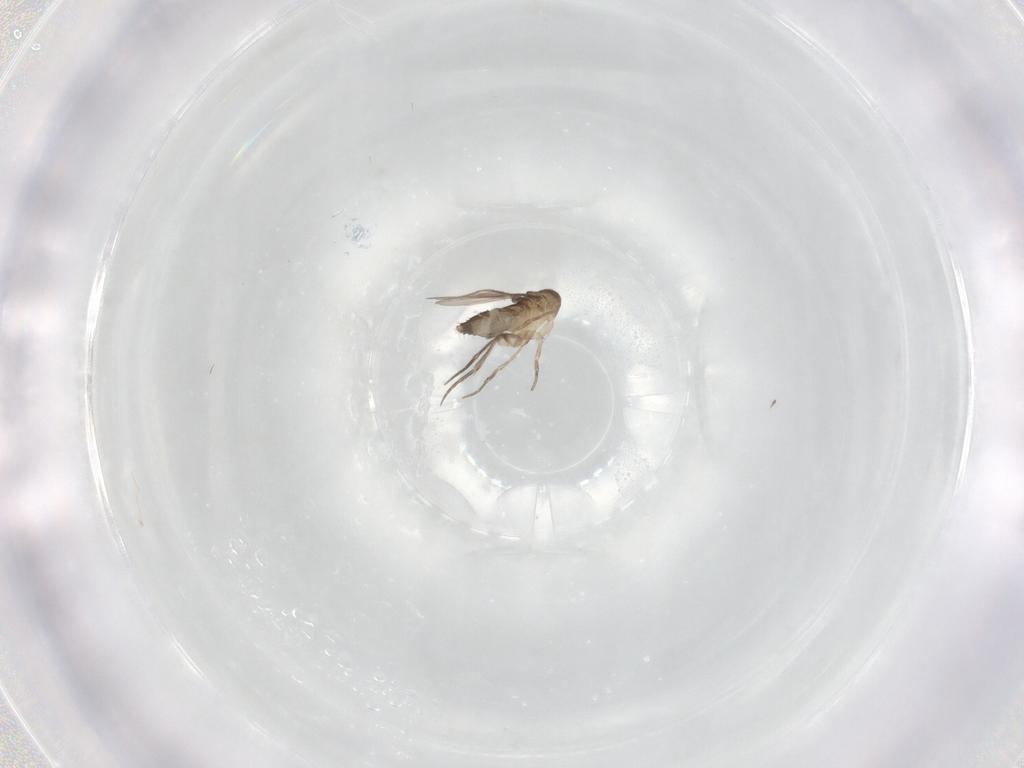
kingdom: Animalia
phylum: Arthropoda
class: Insecta
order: Diptera
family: Phoridae
